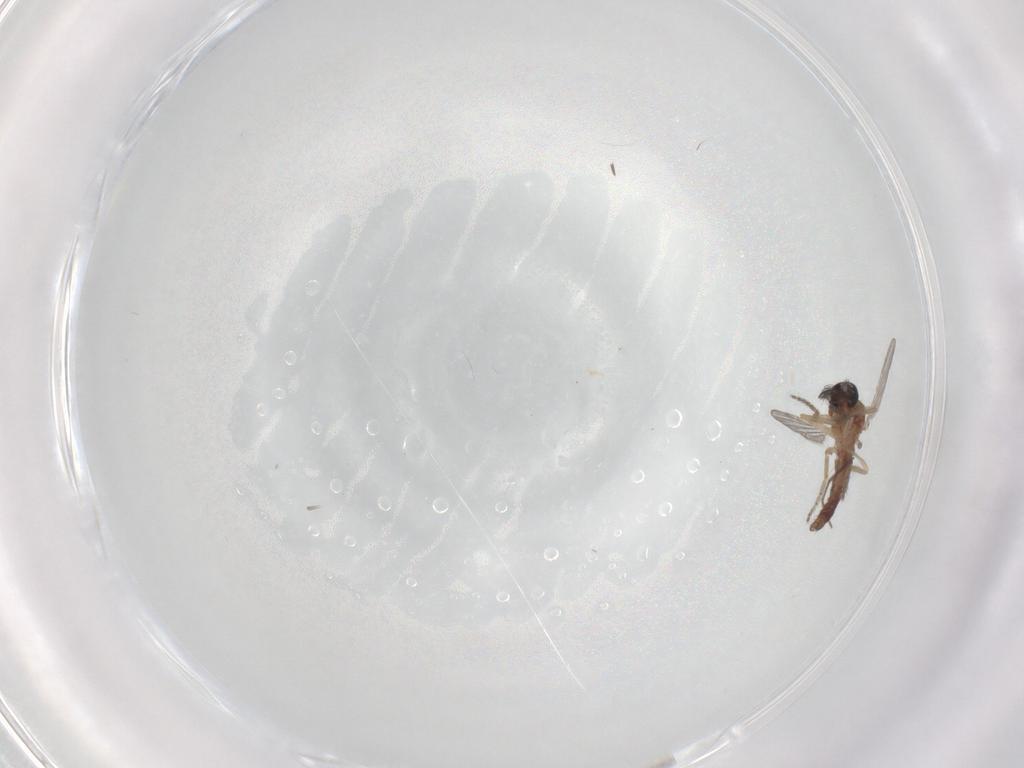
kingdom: Animalia
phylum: Arthropoda
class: Insecta
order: Diptera
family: Ceratopogonidae
